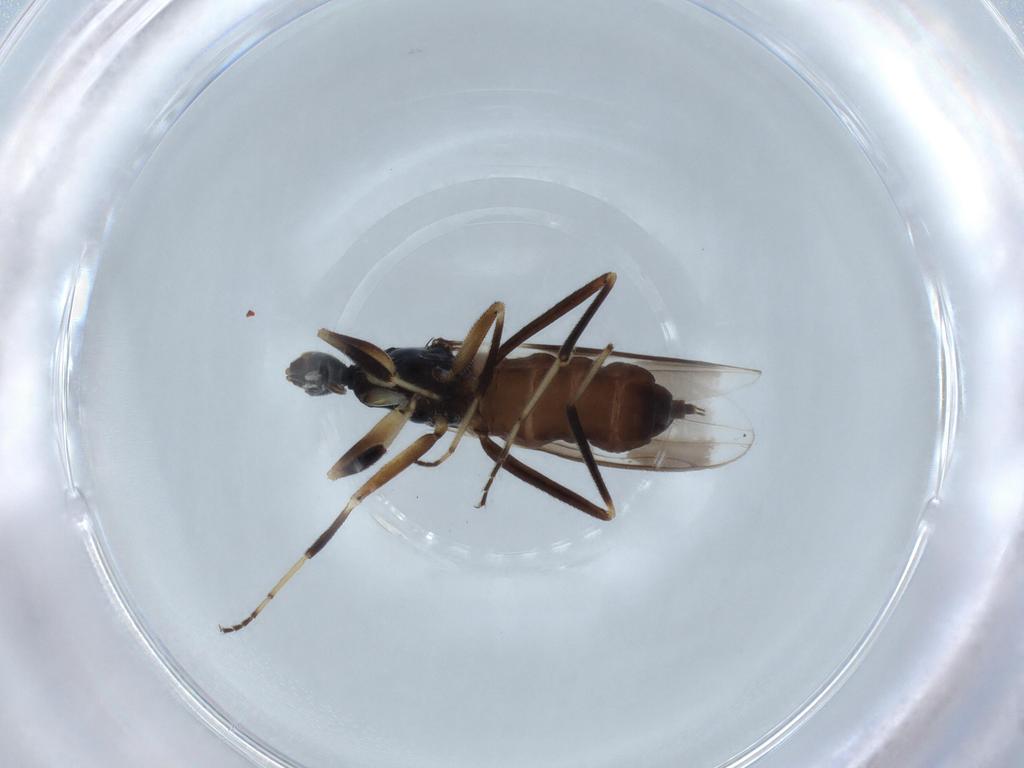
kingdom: Animalia
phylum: Arthropoda
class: Insecta
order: Diptera
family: Hybotidae
